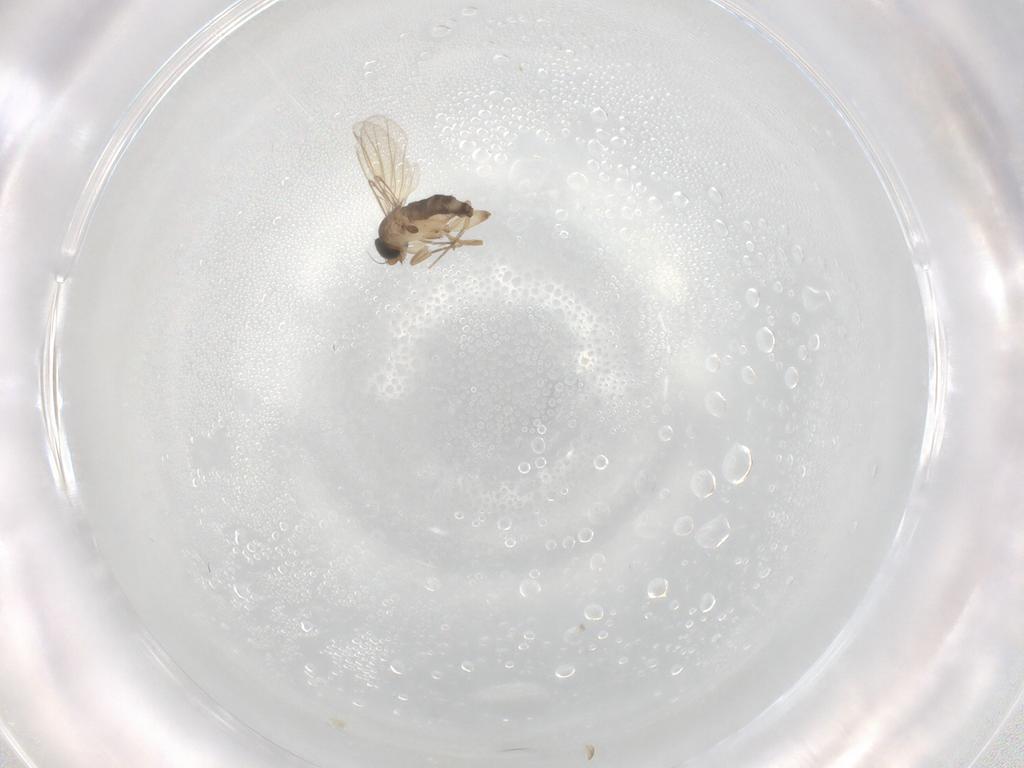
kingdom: Animalia
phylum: Arthropoda
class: Insecta
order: Diptera
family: Phoridae
